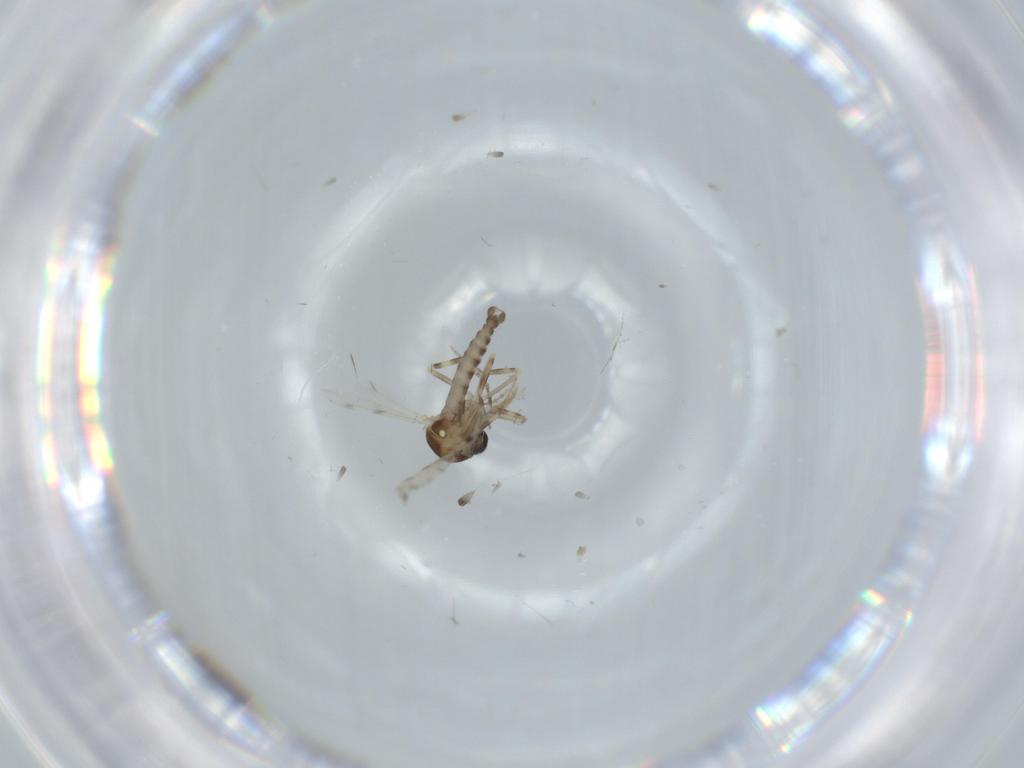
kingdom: Animalia
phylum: Arthropoda
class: Insecta
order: Diptera
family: Ceratopogonidae
